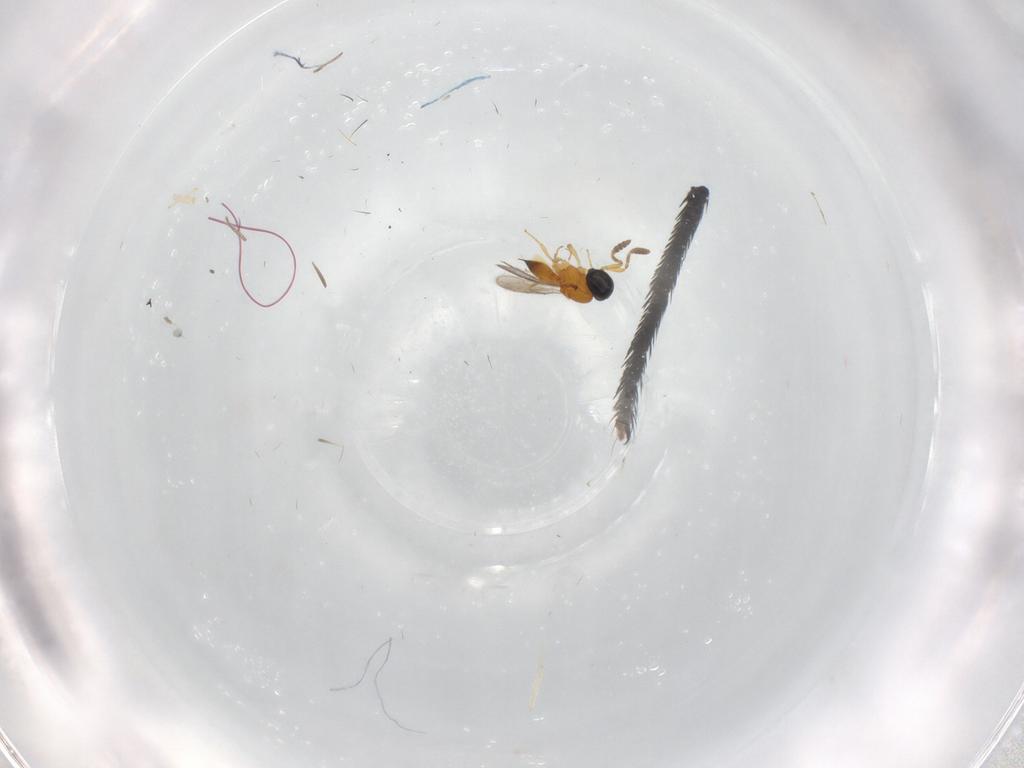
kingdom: Animalia
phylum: Arthropoda
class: Insecta
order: Hymenoptera
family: Scelionidae
